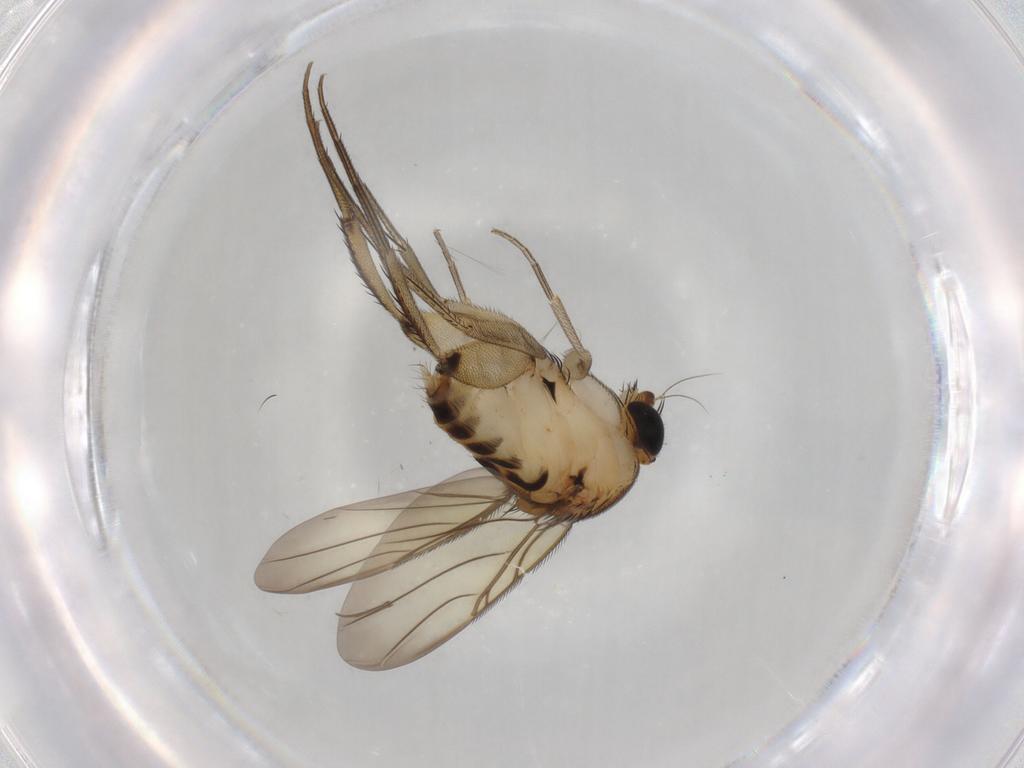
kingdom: Animalia
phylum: Arthropoda
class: Insecta
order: Diptera
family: Phoridae
